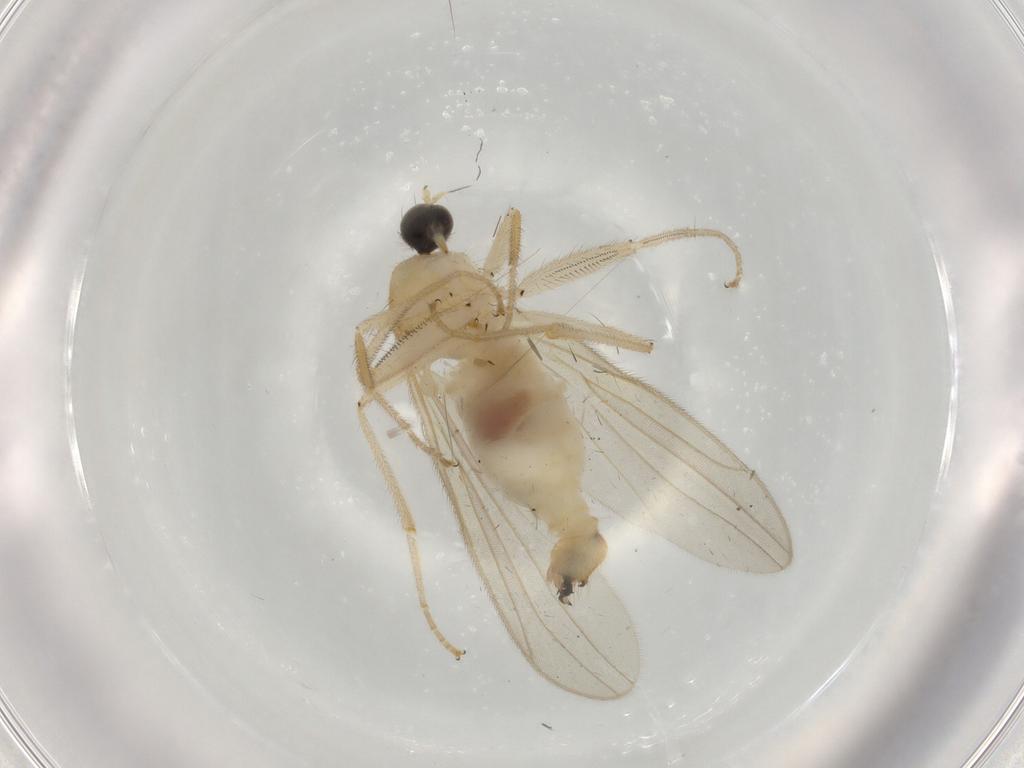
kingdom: Animalia
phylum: Arthropoda
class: Insecta
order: Diptera
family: Hybotidae
